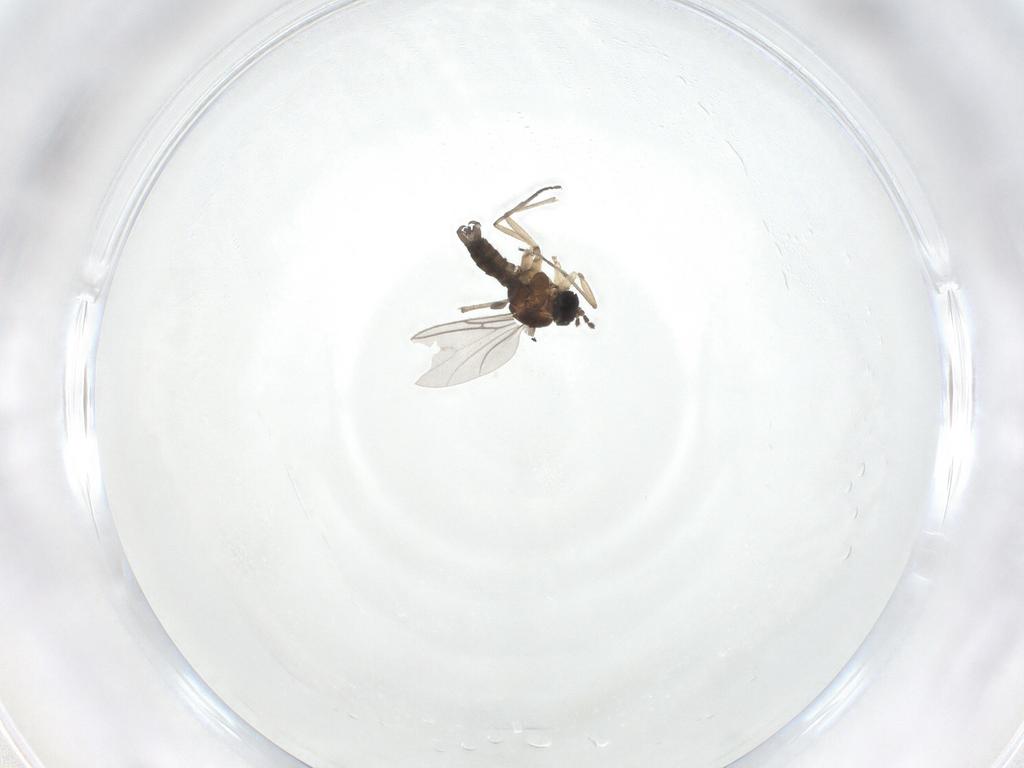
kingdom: Animalia
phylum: Arthropoda
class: Insecta
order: Diptera
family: Sciaridae
